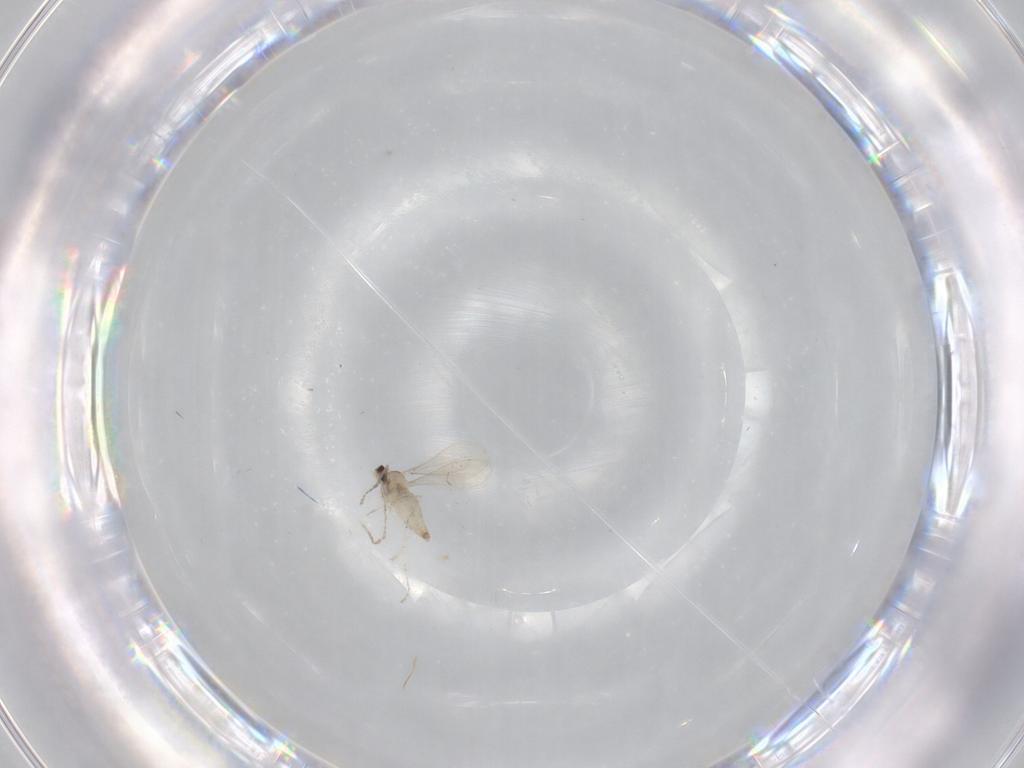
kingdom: Animalia
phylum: Arthropoda
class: Insecta
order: Diptera
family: Cecidomyiidae
